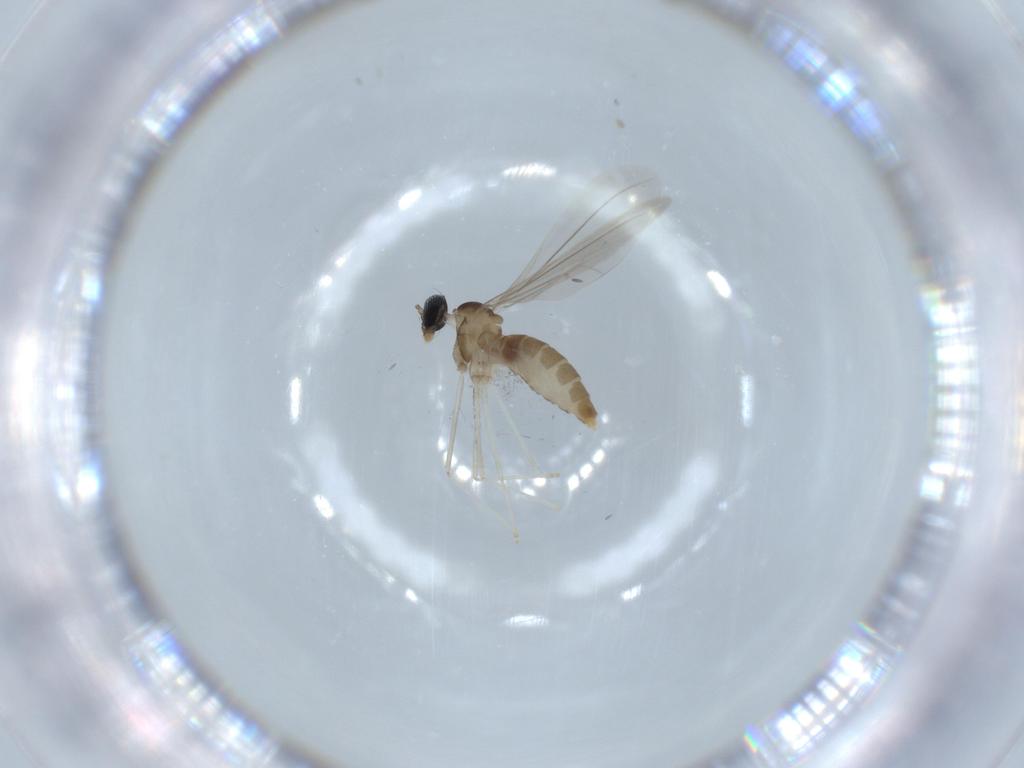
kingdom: Animalia
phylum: Arthropoda
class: Insecta
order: Diptera
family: Cecidomyiidae
